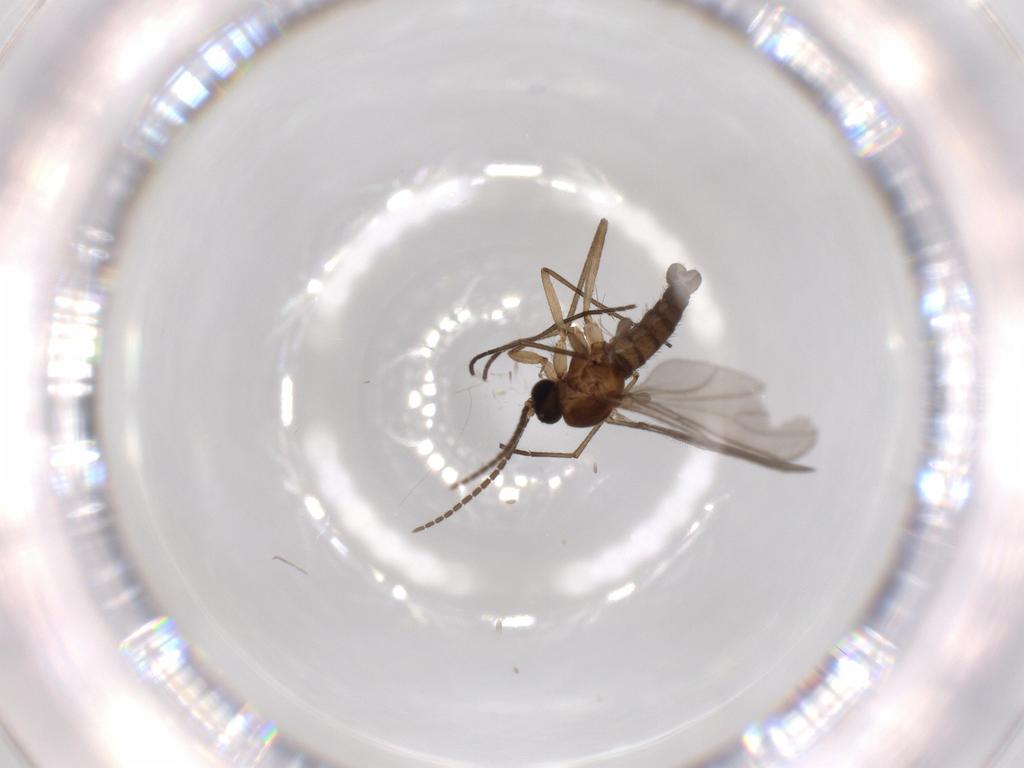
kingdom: Animalia
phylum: Arthropoda
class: Insecta
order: Diptera
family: Sciaridae
